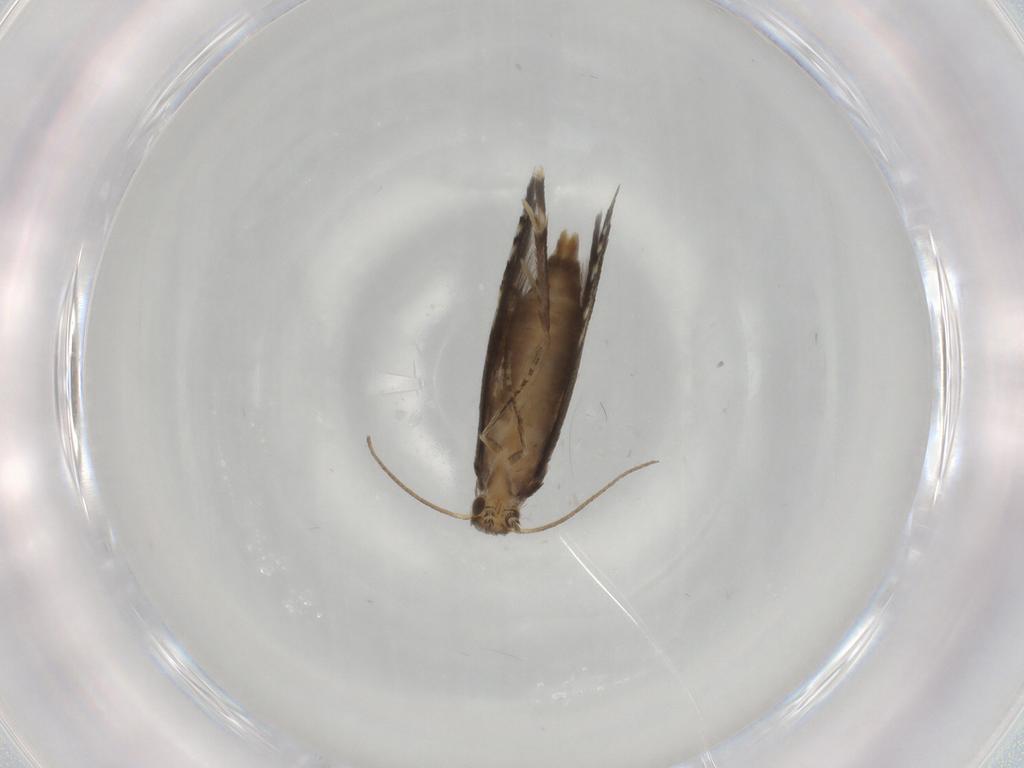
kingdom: Animalia
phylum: Arthropoda
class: Insecta
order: Lepidoptera
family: Glyphipterigidae
